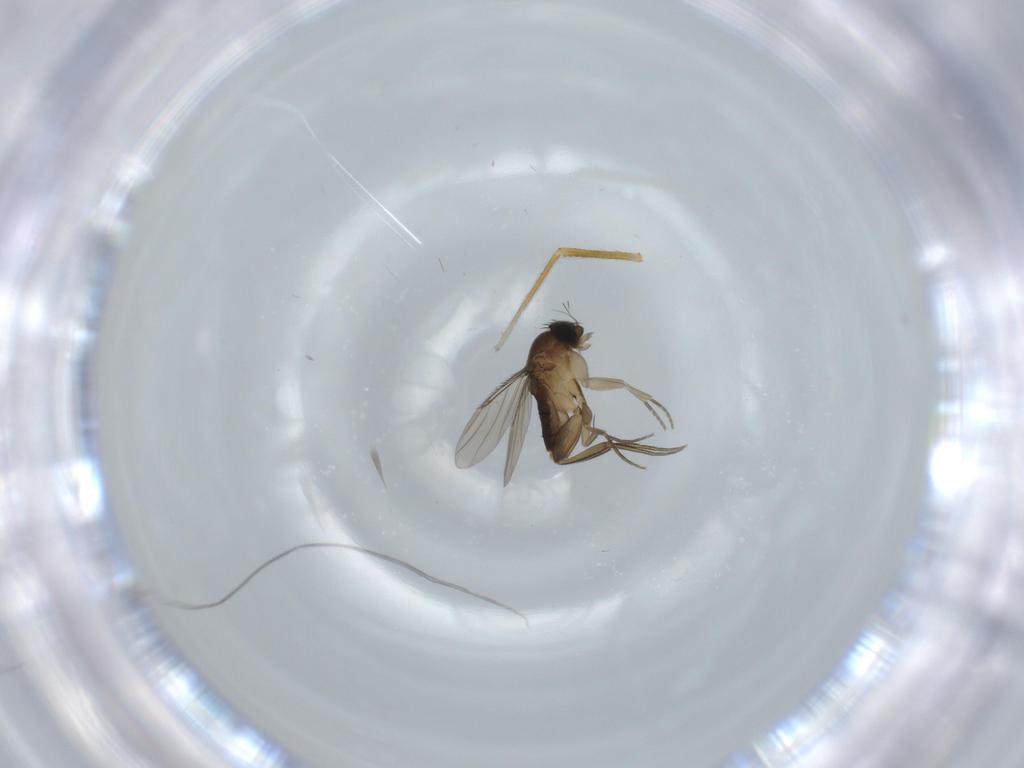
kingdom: Animalia
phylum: Arthropoda
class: Insecta
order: Diptera
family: Phoridae
